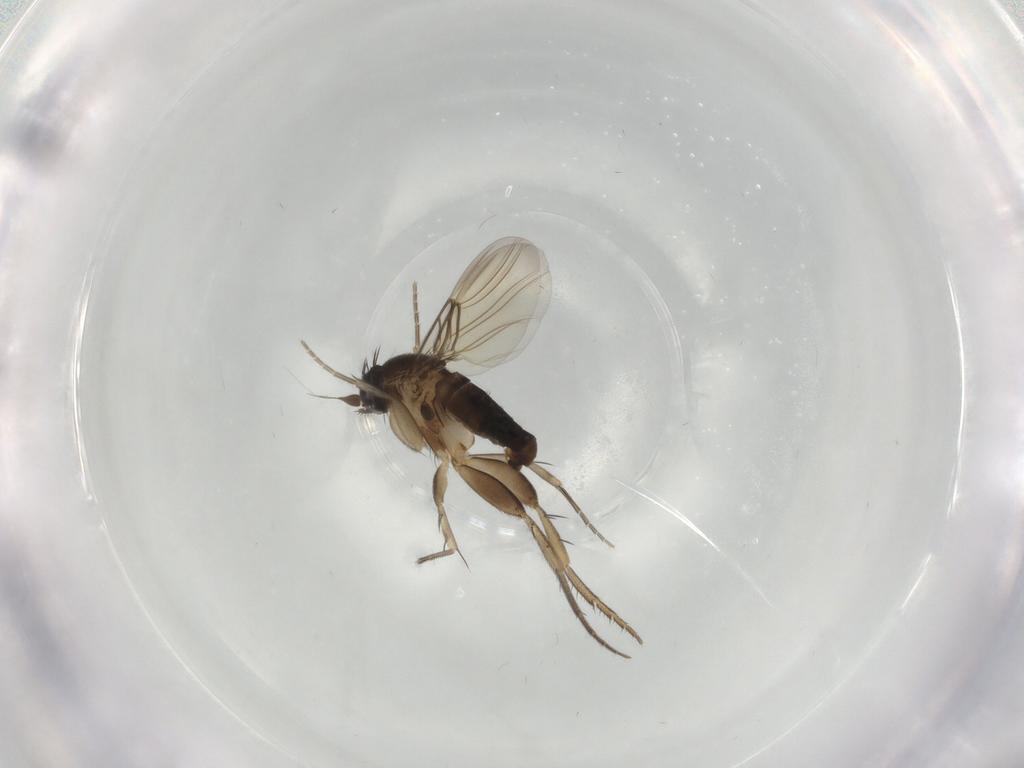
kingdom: Animalia
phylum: Arthropoda
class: Insecta
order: Diptera
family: Phoridae
